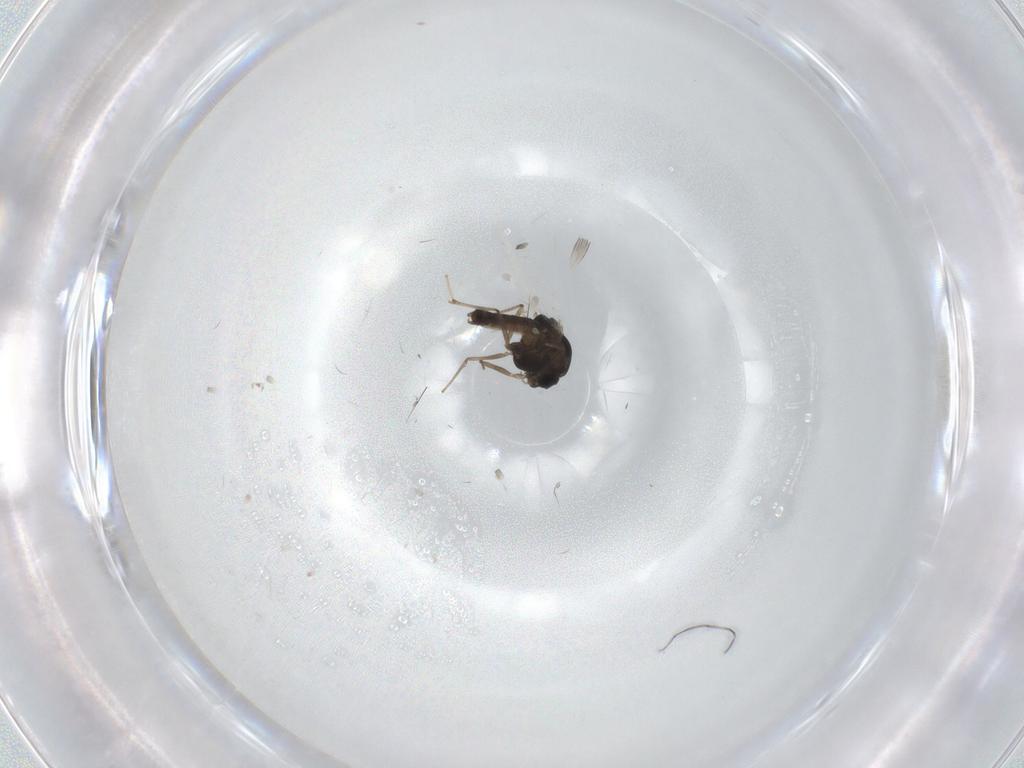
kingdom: Animalia
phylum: Arthropoda
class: Insecta
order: Diptera
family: Chironomidae
